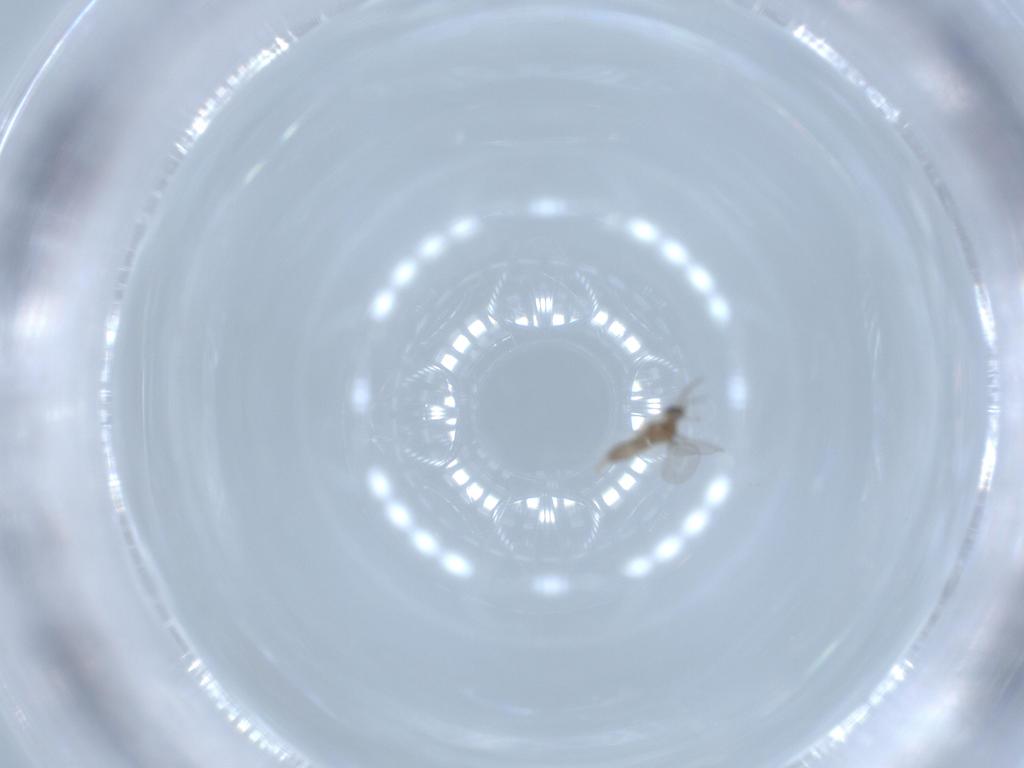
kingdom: Animalia
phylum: Arthropoda
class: Insecta
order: Diptera
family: Cecidomyiidae
